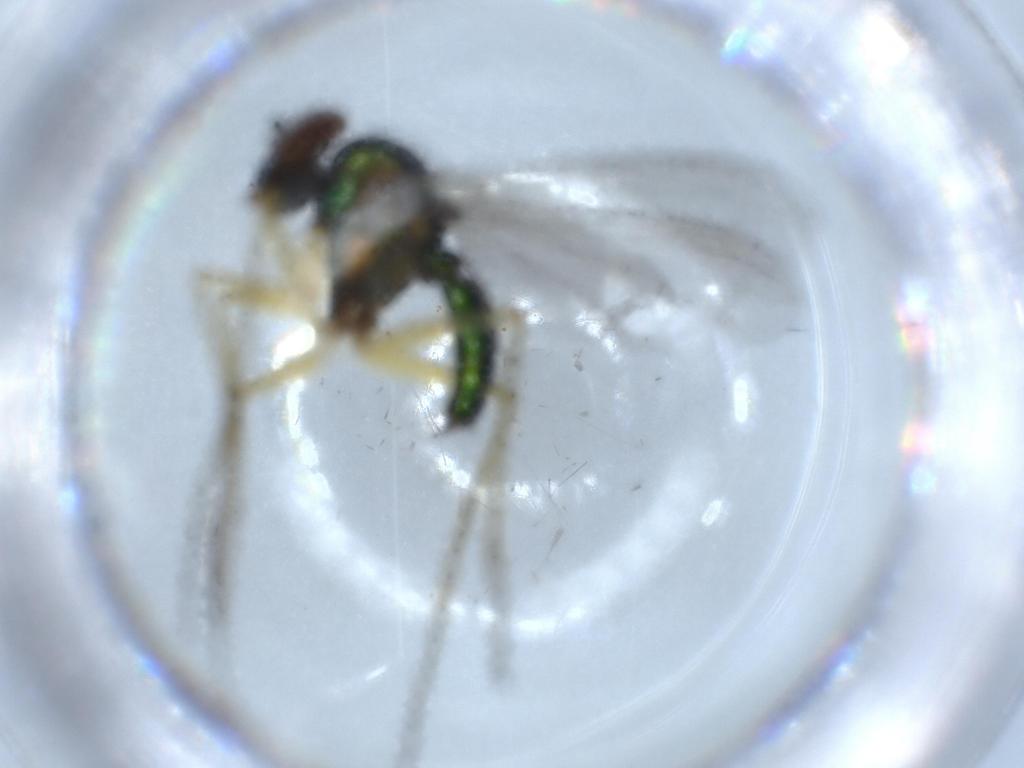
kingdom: Animalia
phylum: Arthropoda
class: Insecta
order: Diptera
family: Dolichopodidae
